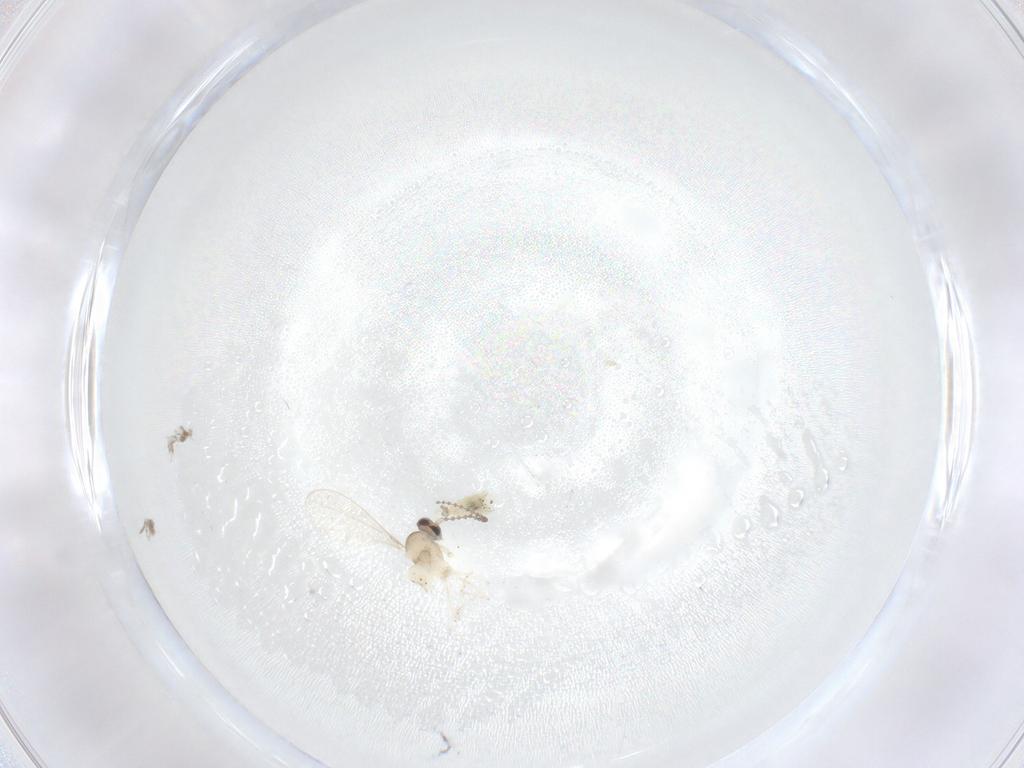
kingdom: Animalia
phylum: Arthropoda
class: Insecta
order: Diptera
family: Cecidomyiidae
